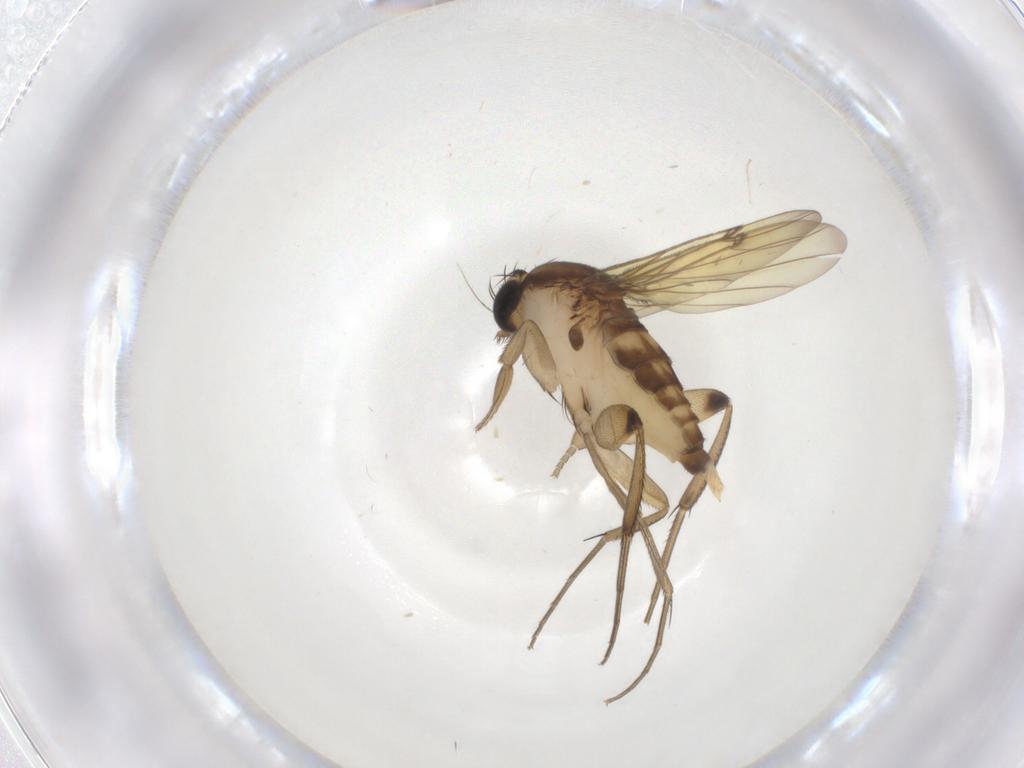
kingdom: Animalia
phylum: Arthropoda
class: Insecta
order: Diptera
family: Phoridae
